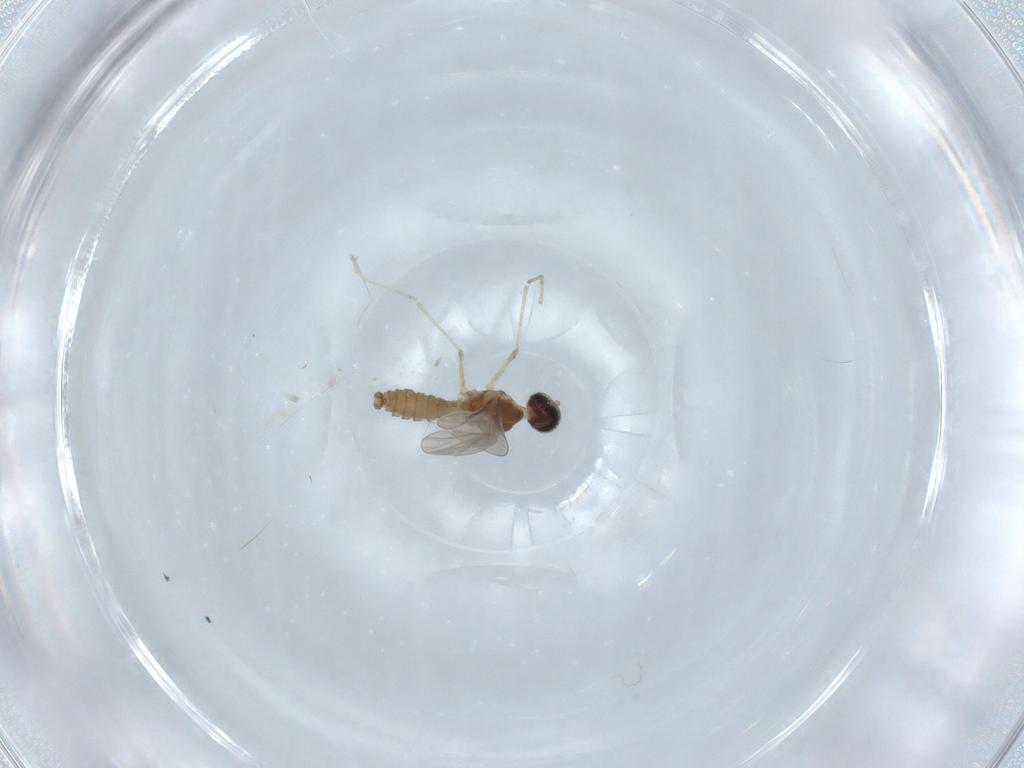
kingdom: Animalia
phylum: Arthropoda
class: Insecta
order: Diptera
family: Cecidomyiidae
